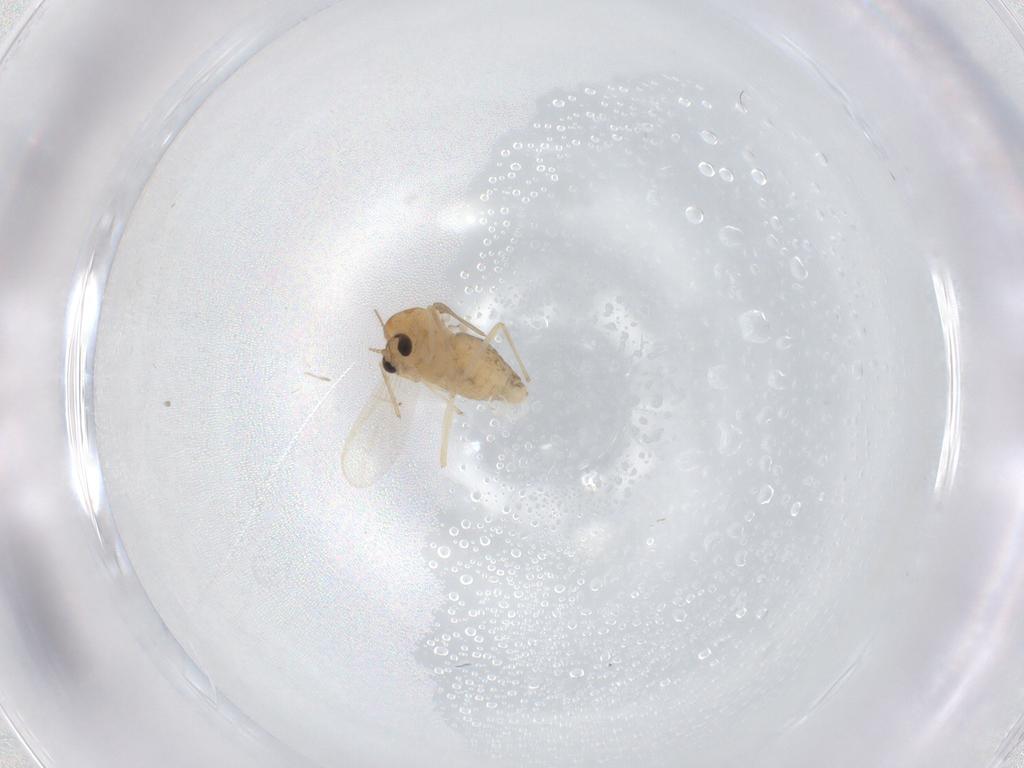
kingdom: Animalia
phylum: Arthropoda
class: Insecta
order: Diptera
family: Chironomidae
